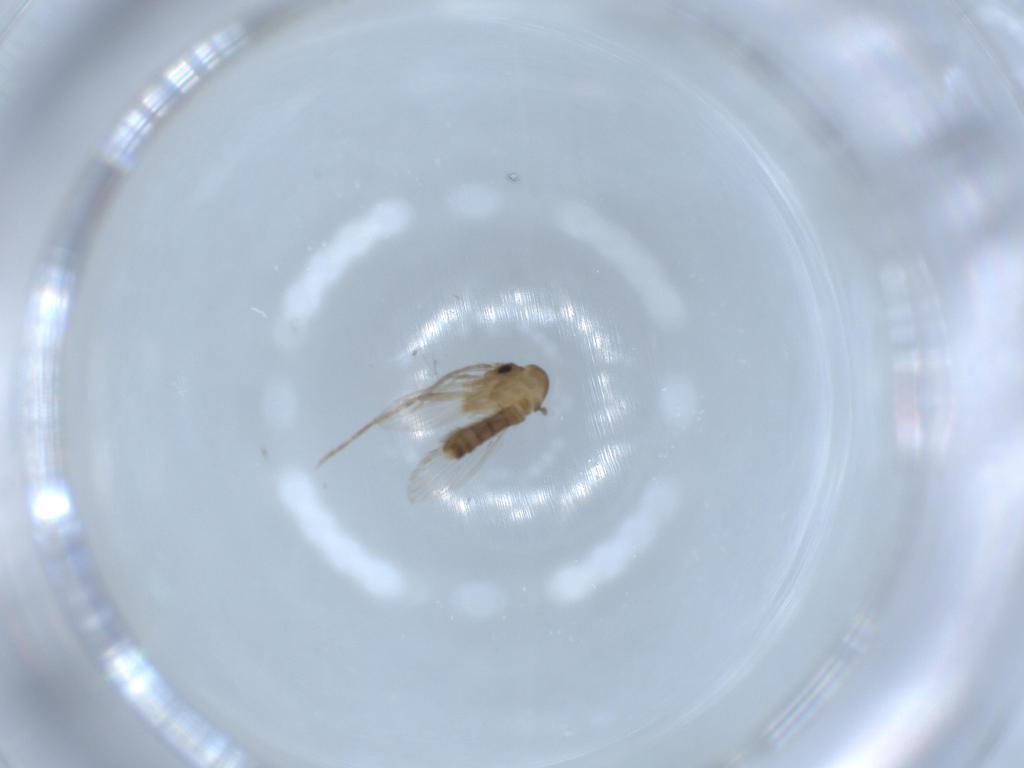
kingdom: Animalia
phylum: Arthropoda
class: Insecta
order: Diptera
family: Psychodidae
